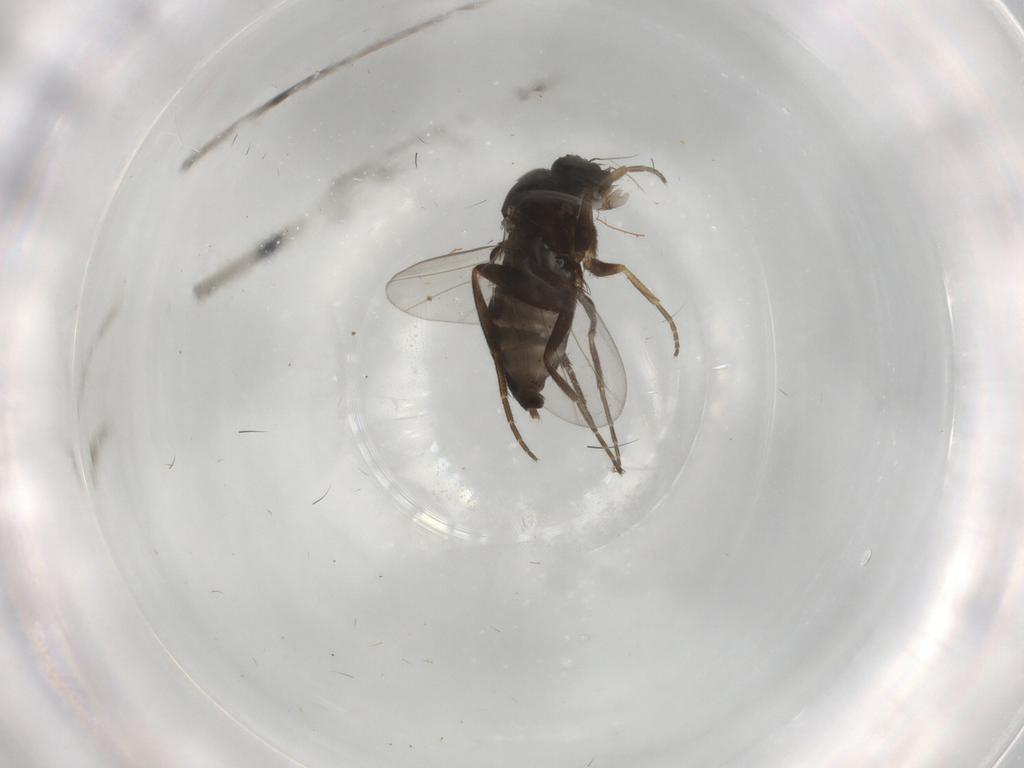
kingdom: Animalia
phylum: Arthropoda
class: Insecta
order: Diptera
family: Phoridae
